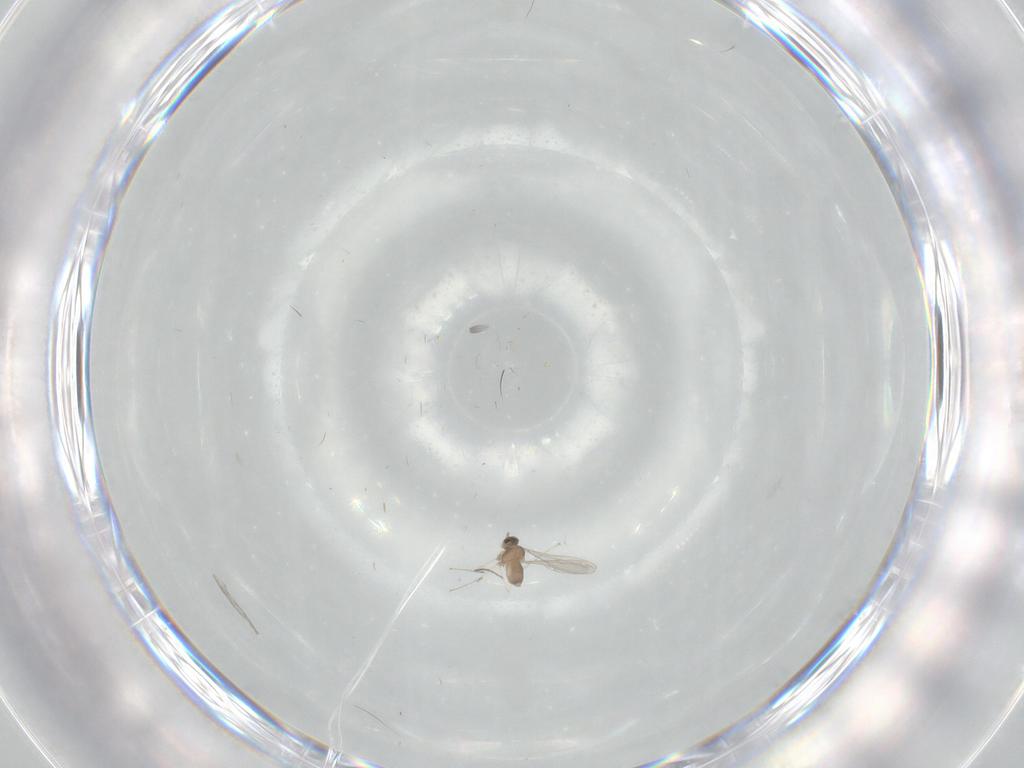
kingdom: Animalia
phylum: Arthropoda
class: Insecta
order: Diptera
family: Cecidomyiidae
